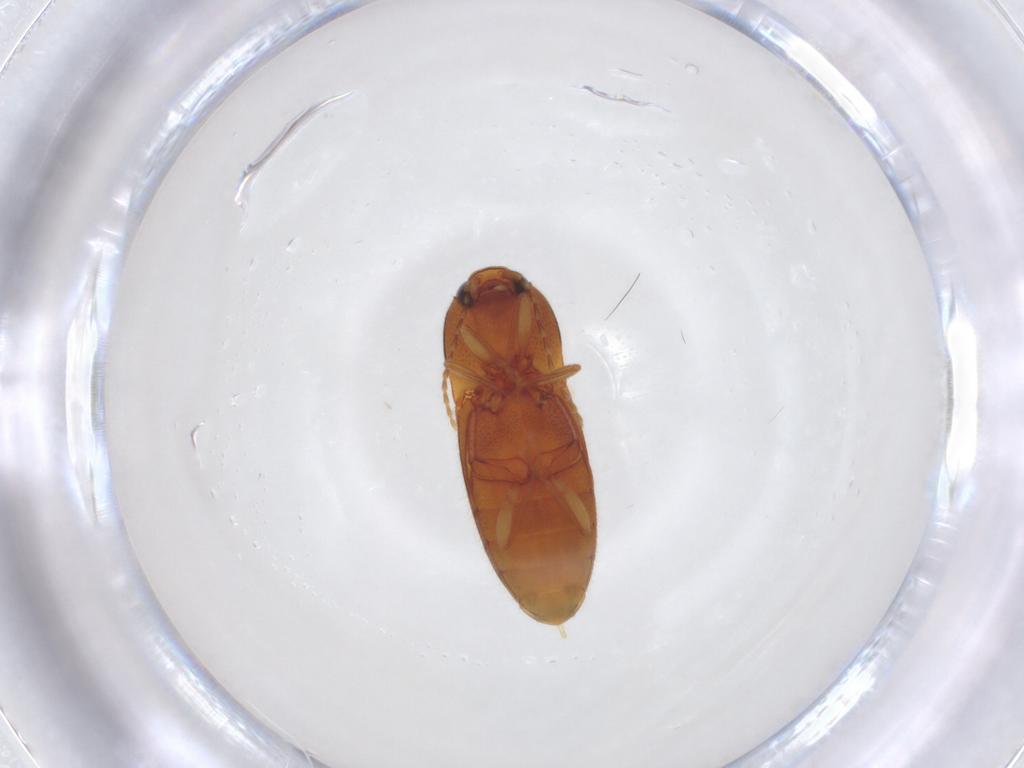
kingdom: Animalia
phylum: Arthropoda
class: Insecta
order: Coleoptera
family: Elateridae
